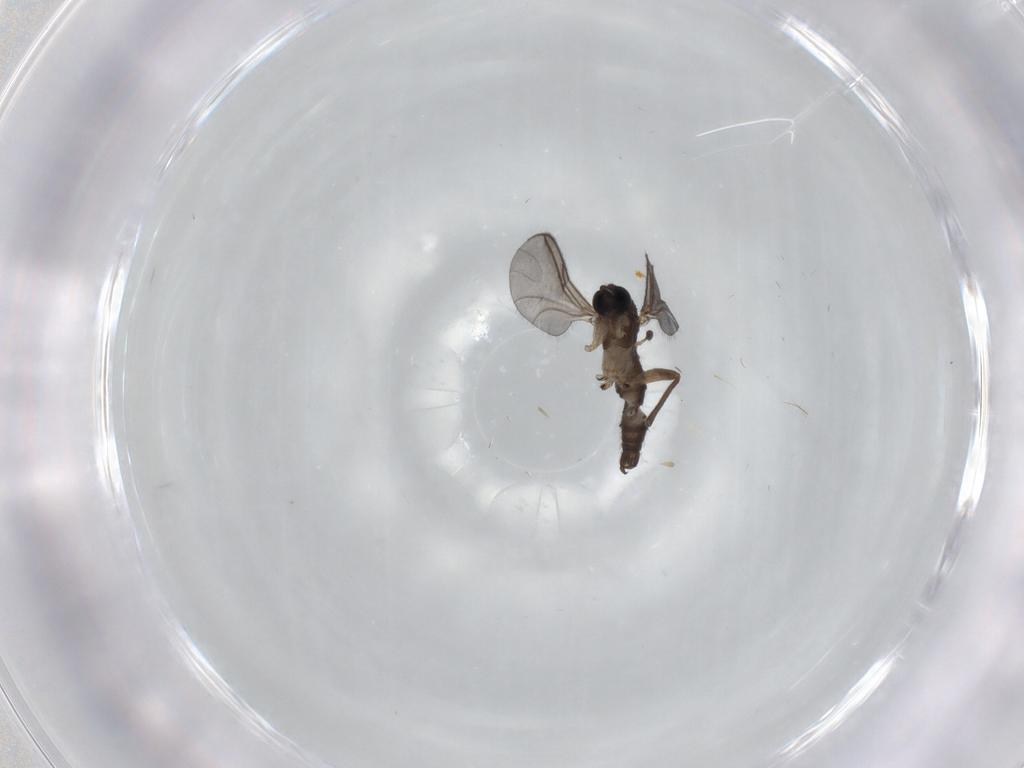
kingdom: Animalia
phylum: Arthropoda
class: Insecta
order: Diptera
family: Sciaridae
